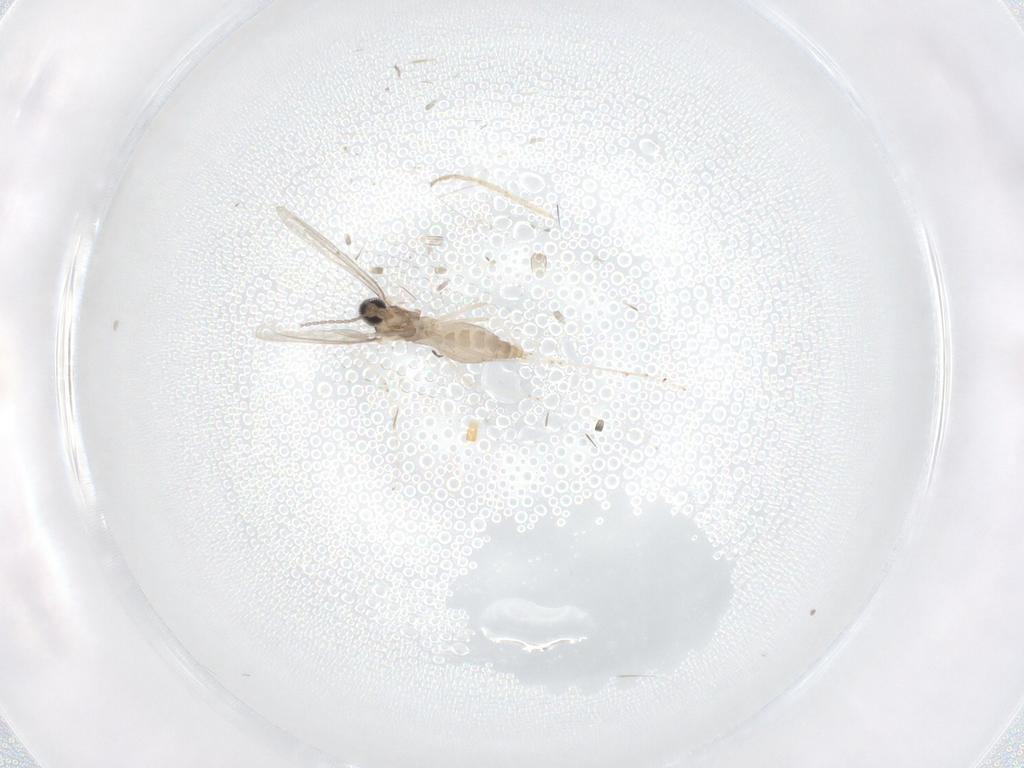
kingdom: Animalia
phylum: Arthropoda
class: Insecta
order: Diptera
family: Chironomidae
